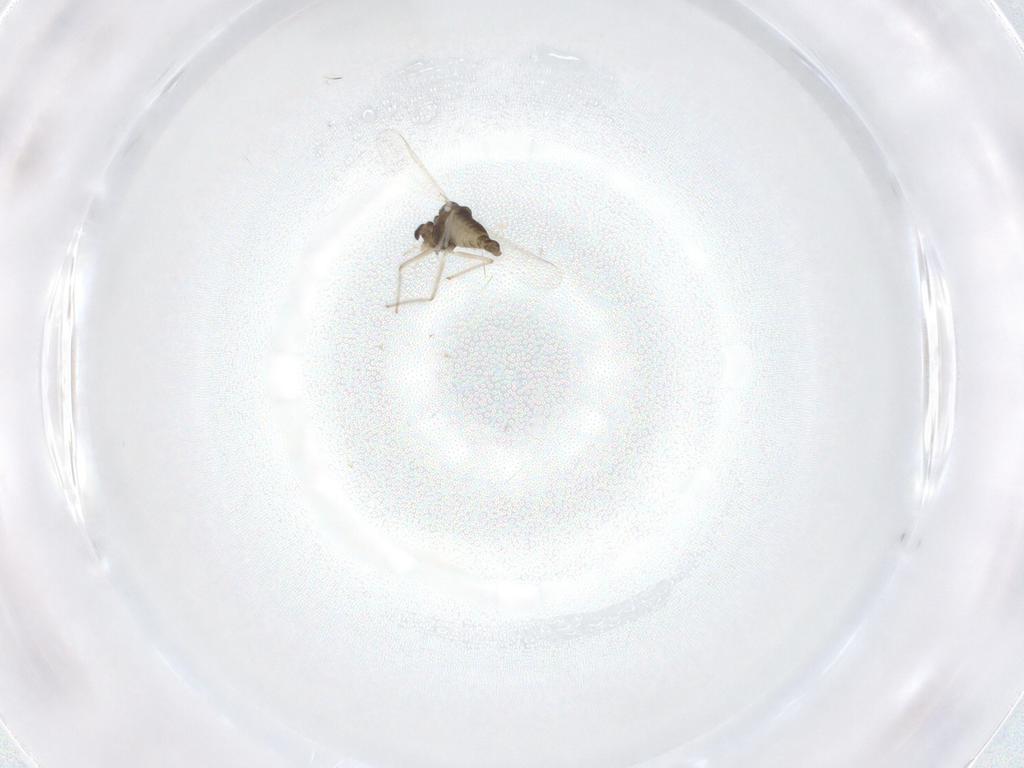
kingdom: Animalia
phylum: Arthropoda
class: Insecta
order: Diptera
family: Chironomidae
